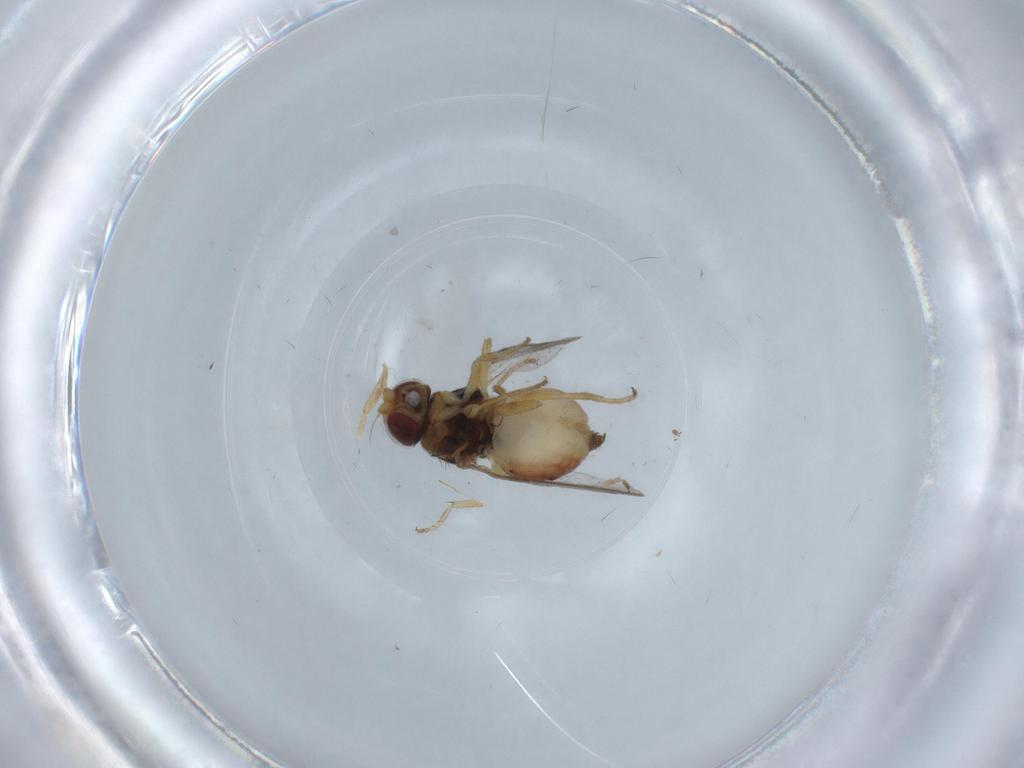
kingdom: Animalia
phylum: Arthropoda
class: Insecta
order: Diptera
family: Chloropidae
